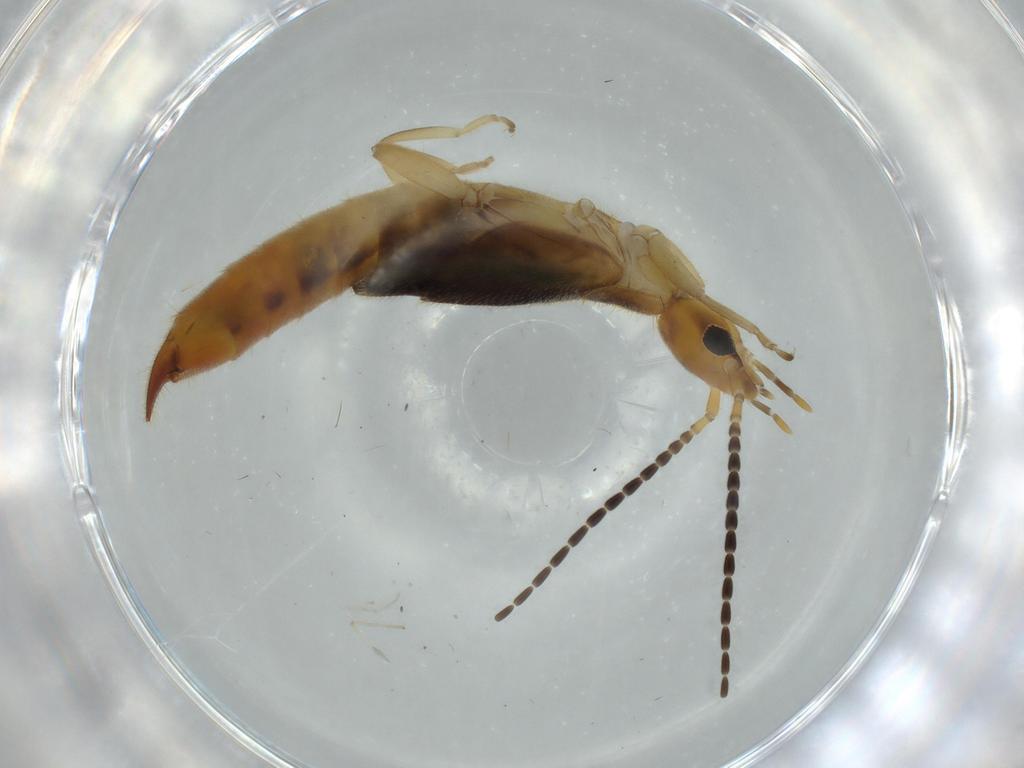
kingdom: Animalia
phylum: Arthropoda
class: Insecta
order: Dermaptera
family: Forficulidae
